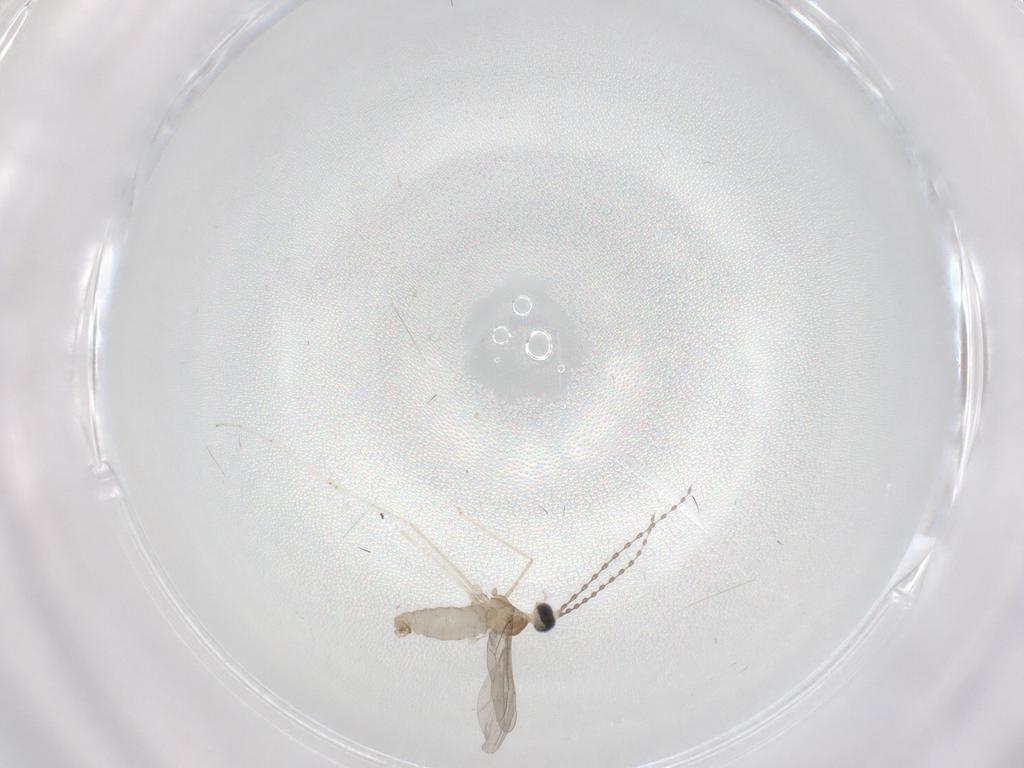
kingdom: Animalia
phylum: Arthropoda
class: Insecta
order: Diptera
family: Cecidomyiidae
